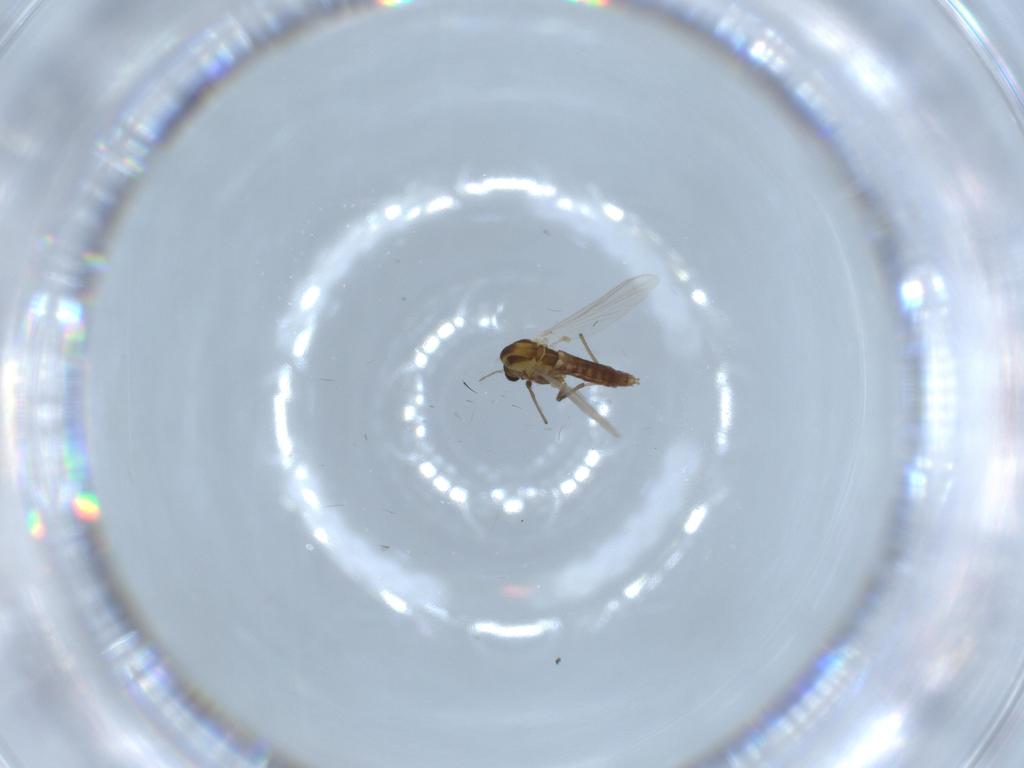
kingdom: Animalia
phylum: Arthropoda
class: Insecta
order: Diptera
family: Chironomidae
